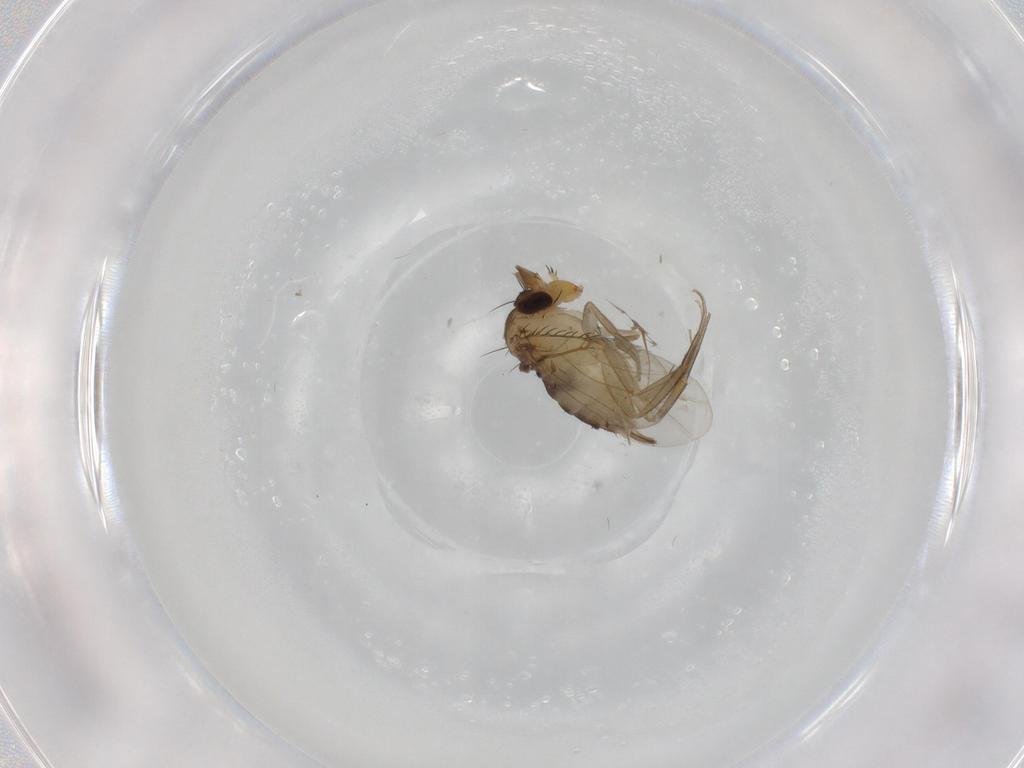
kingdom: Animalia
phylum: Arthropoda
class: Insecta
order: Diptera
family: Phoridae
